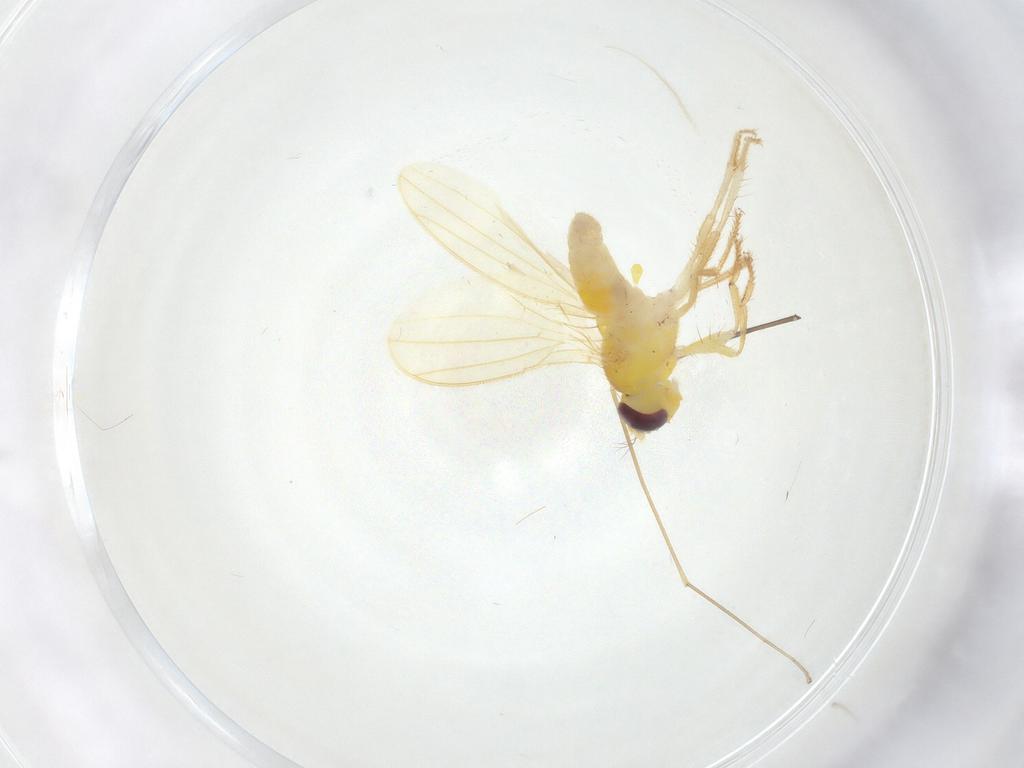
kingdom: Animalia
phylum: Arthropoda
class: Insecta
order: Diptera
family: Periscelididae
